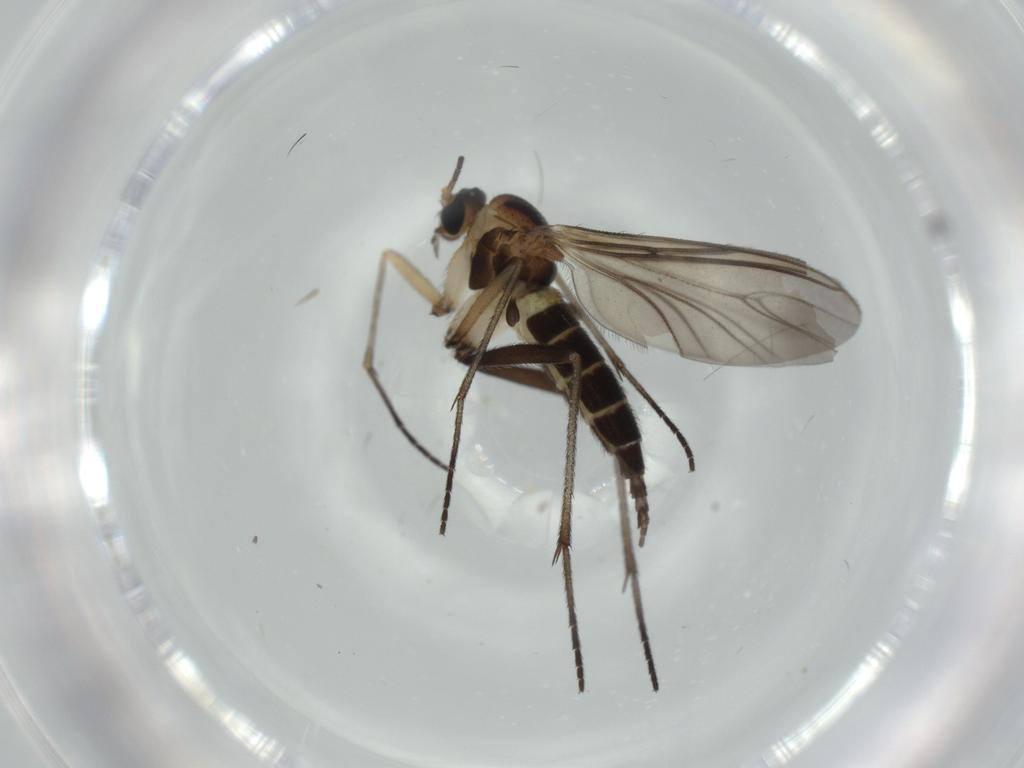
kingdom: Animalia
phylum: Arthropoda
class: Insecta
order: Diptera
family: Sciaridae
